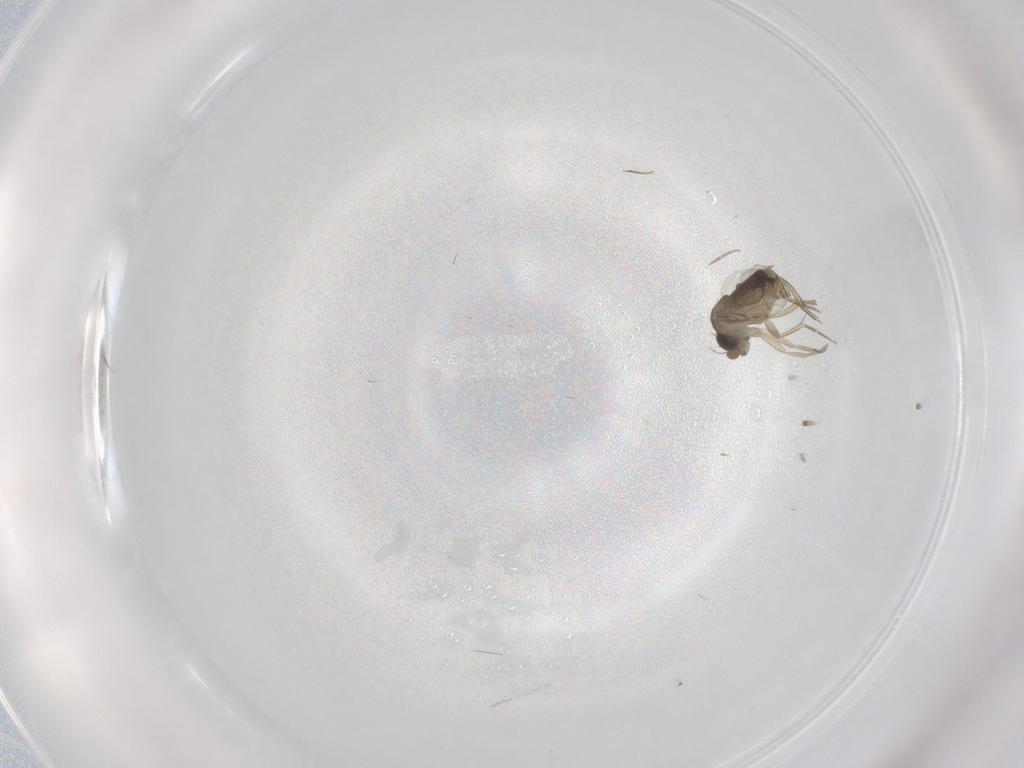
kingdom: Animalia
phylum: Arthropoda
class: Insecta
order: Diptera
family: Phoridae
